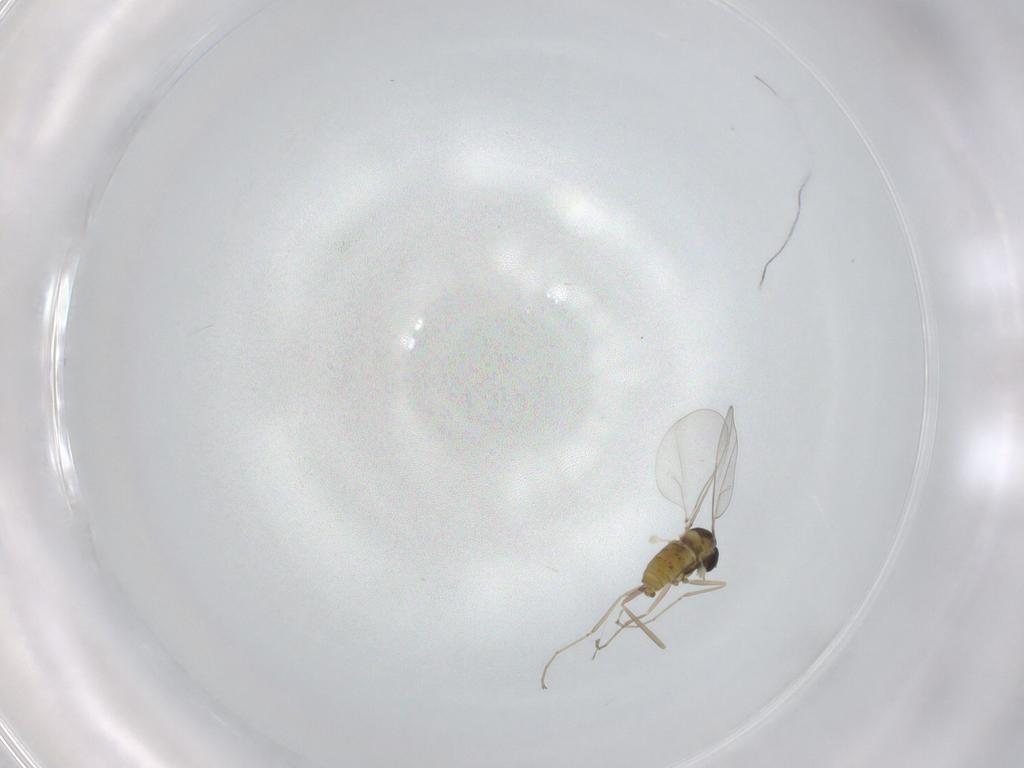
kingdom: Animalia
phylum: Arthropoda
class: Insecta
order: Diptera
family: Cecidomyiidae
